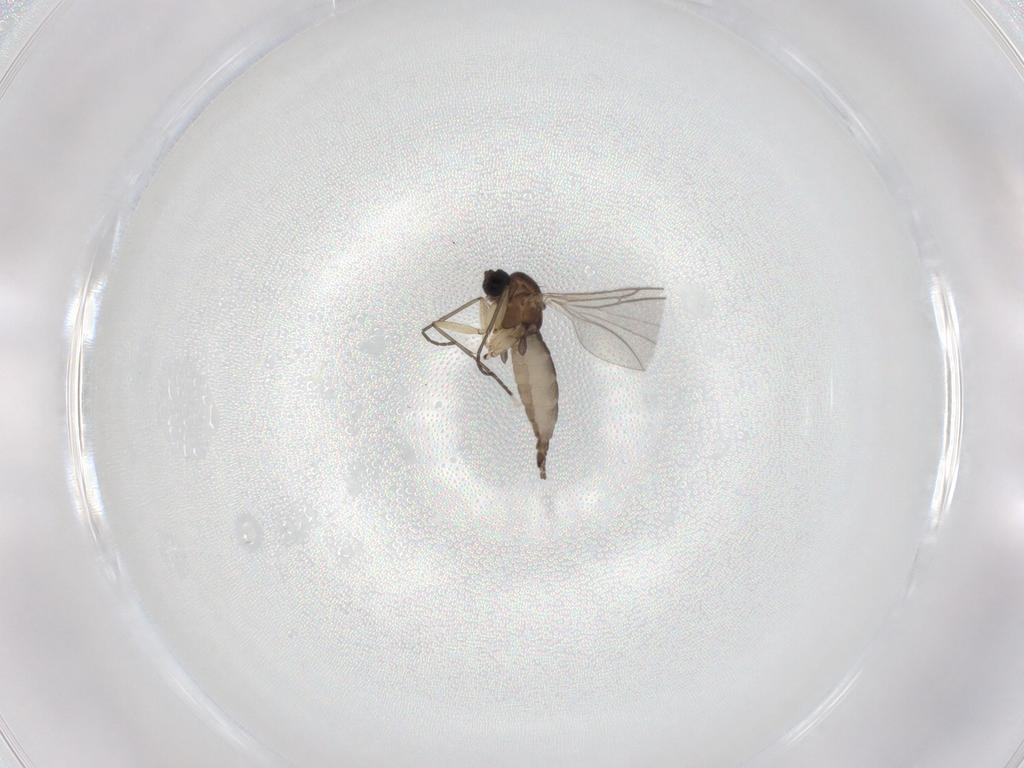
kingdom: Animalia
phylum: Arthropoda
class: Insecta
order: Diptera
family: Sciaridae
